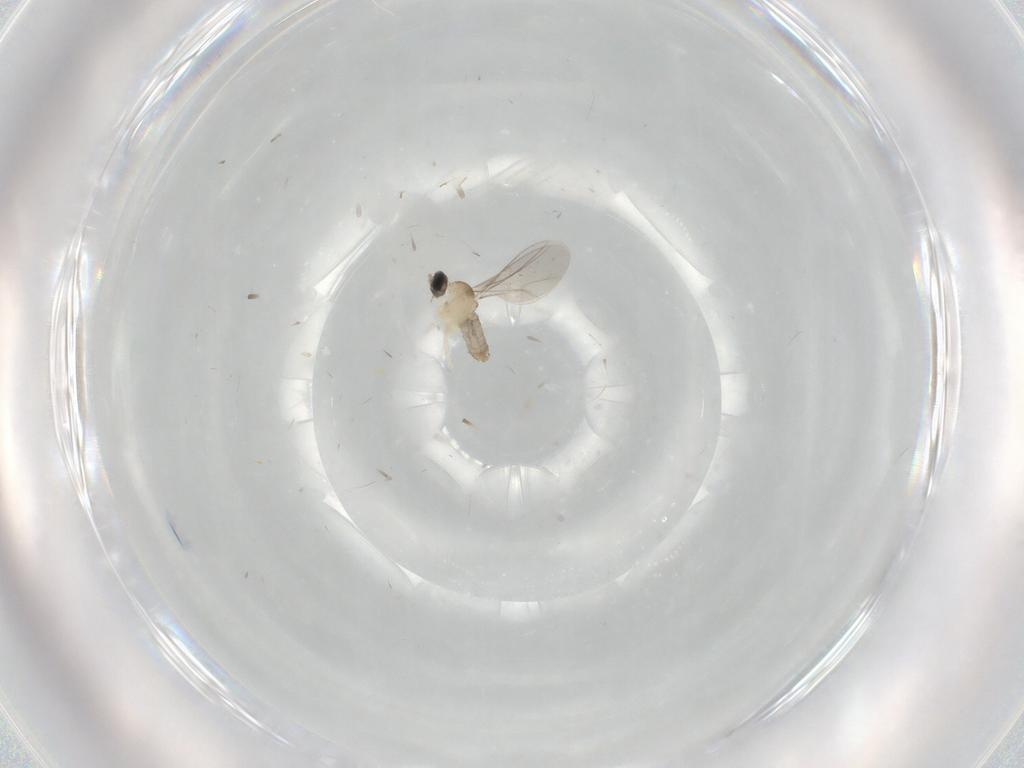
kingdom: Animalia
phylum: Arthropoda
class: Insecta
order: Diptera
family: Cecidomyiidae
